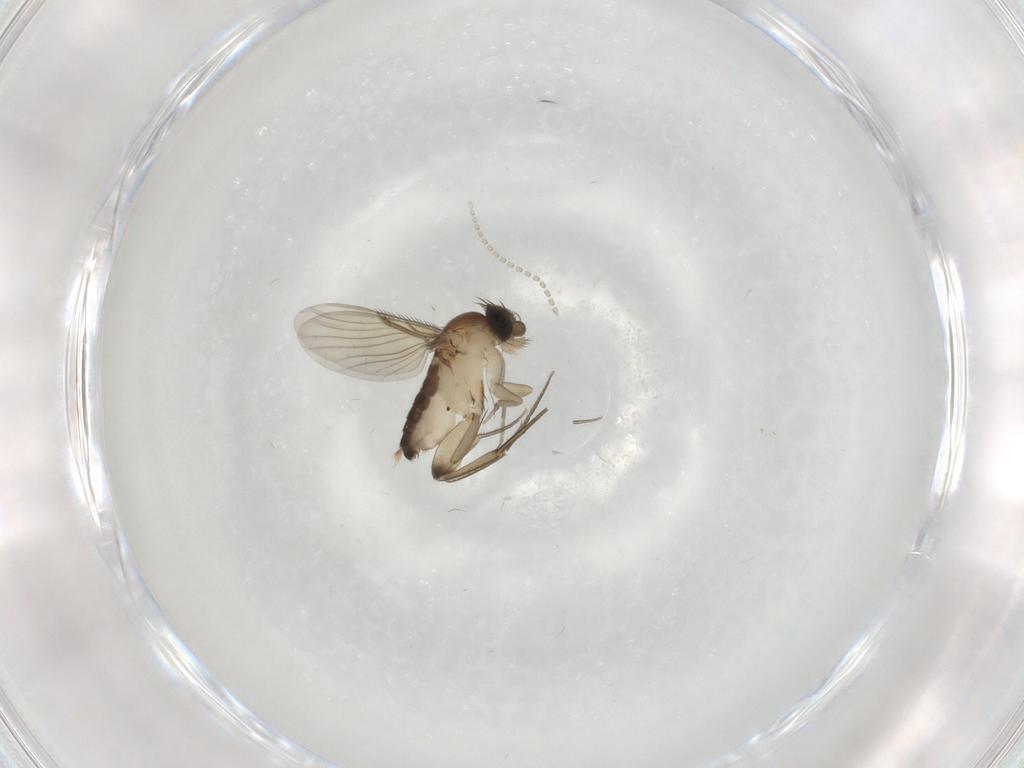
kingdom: Animalia
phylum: Arthropoda
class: Insecta
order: Diptera
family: Phoridae
